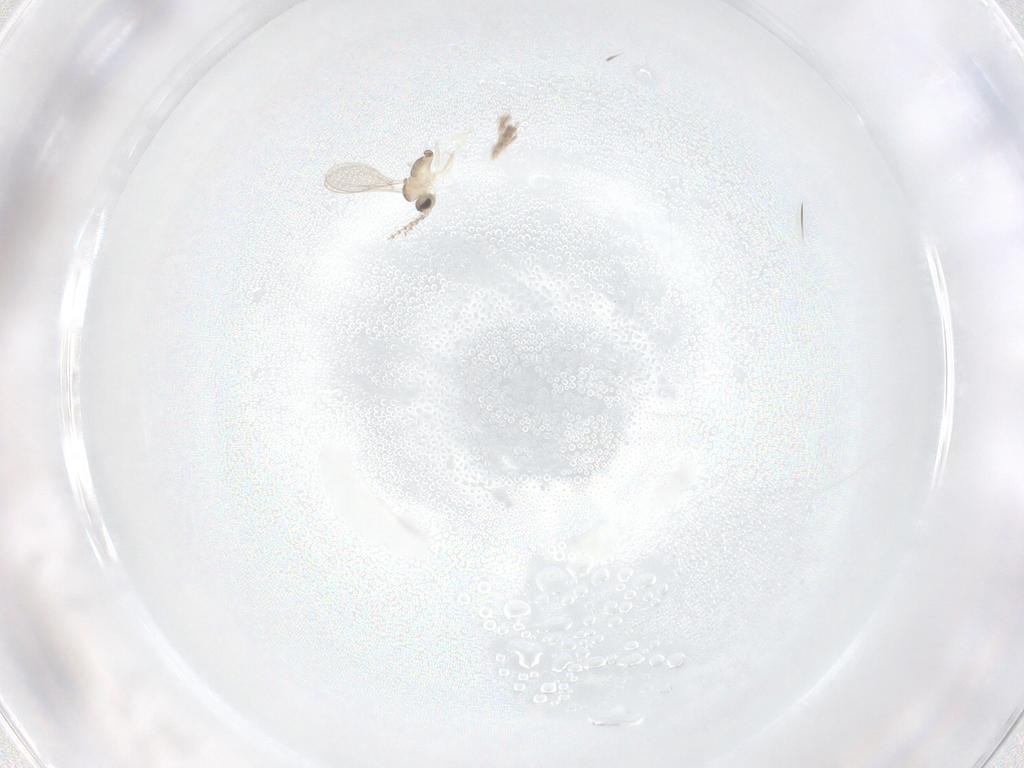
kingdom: Animalia
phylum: Arthropoda
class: Insecta
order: Diptera
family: Cecidomyiidae
